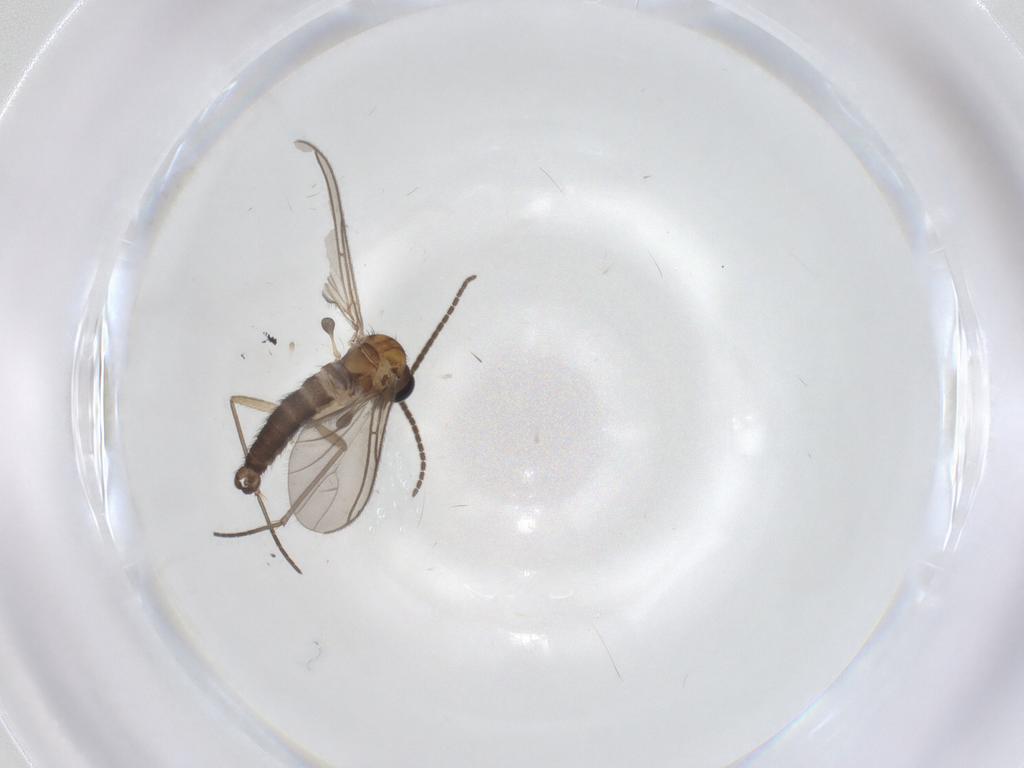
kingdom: Animalia
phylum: Arthropoda
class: Insecta
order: Diptera
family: Sciaridae
